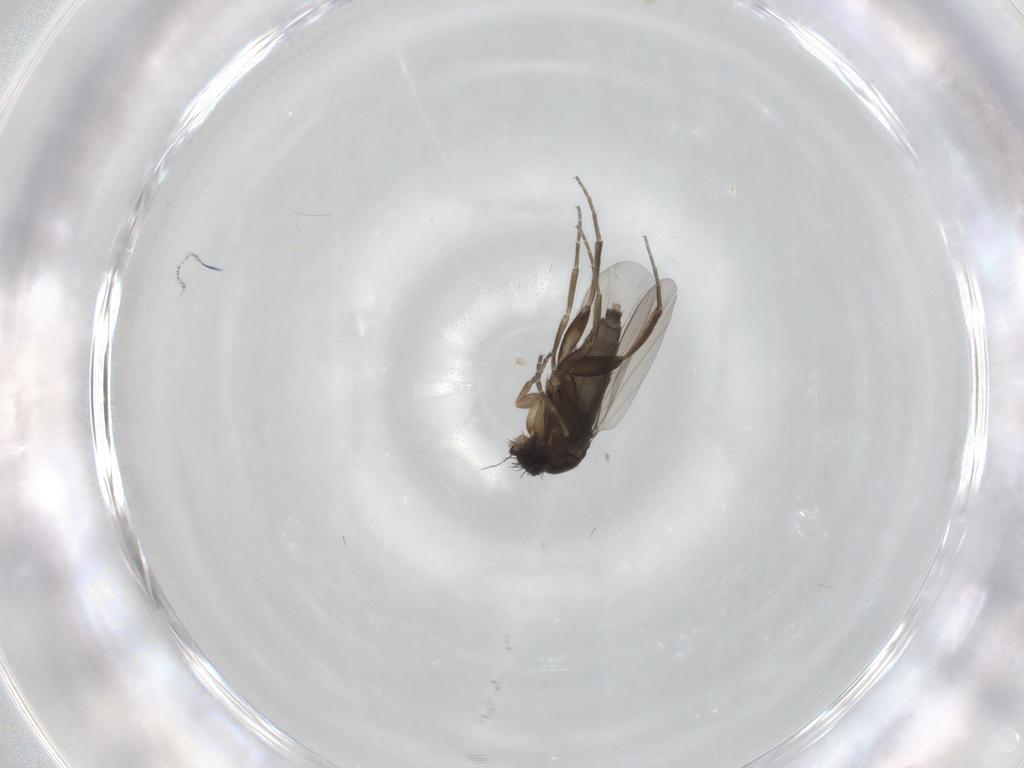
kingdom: Animalia
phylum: Arthropoda
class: Insecta
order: Diptera
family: Phoridae
